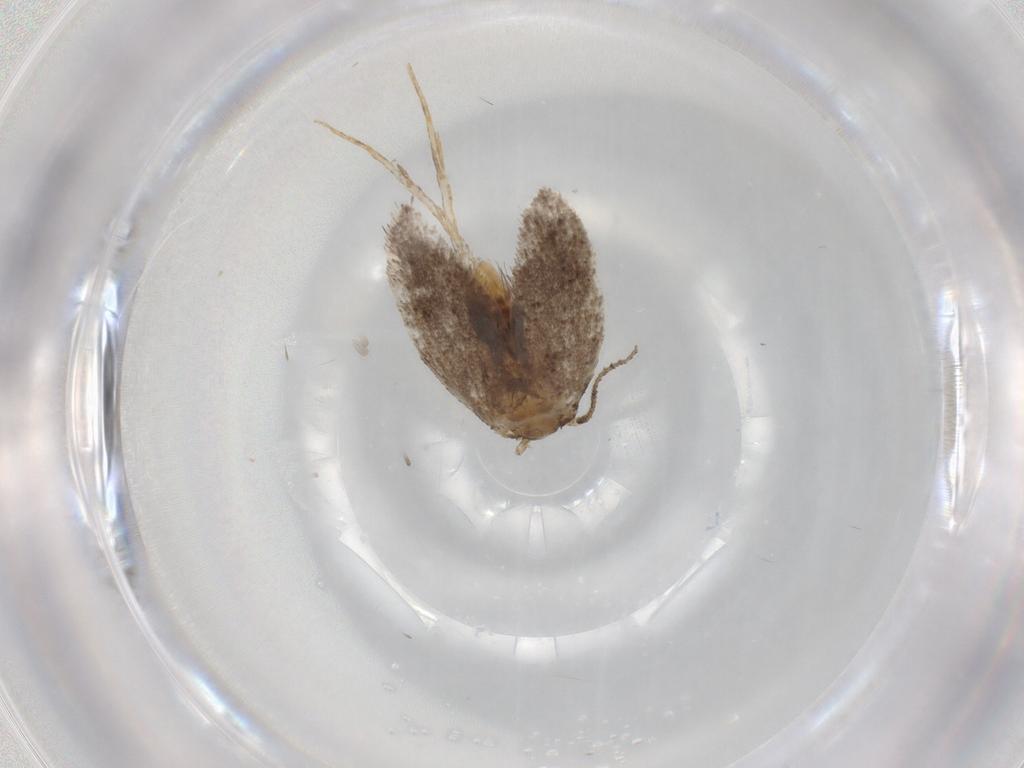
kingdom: Animalia
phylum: Arthropoda
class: Insecta
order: Lepidoptera
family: Dryadaulidae
